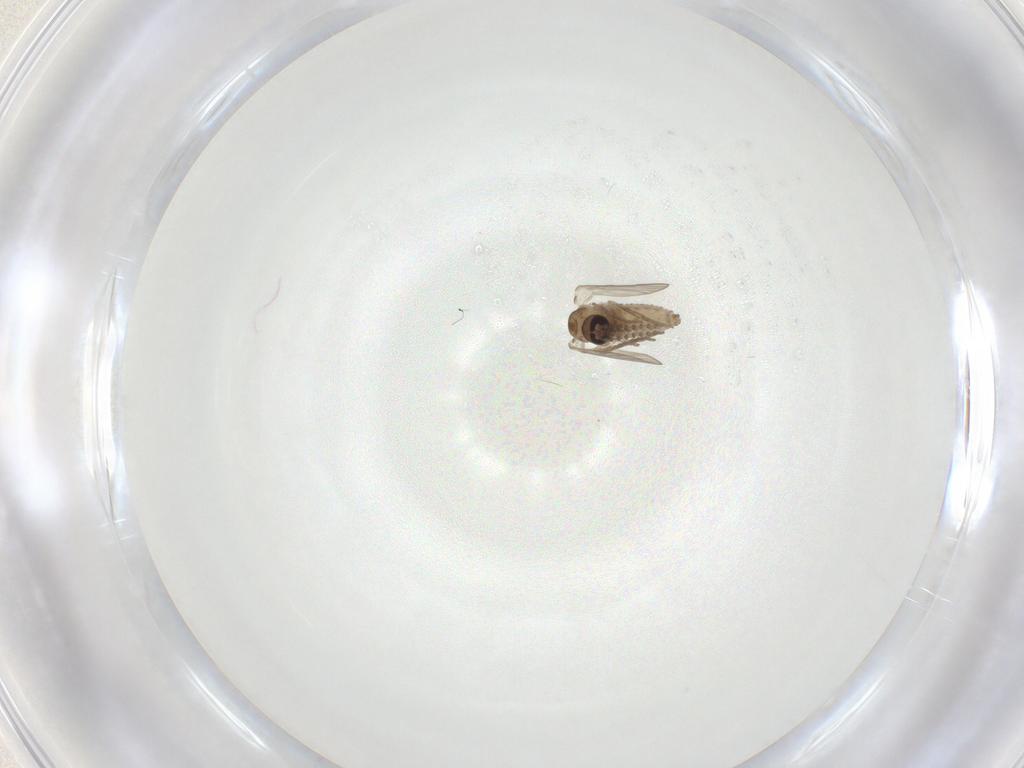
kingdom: Animalia
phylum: Arthropoda
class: Insecta
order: Diptera
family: Psychodidae
